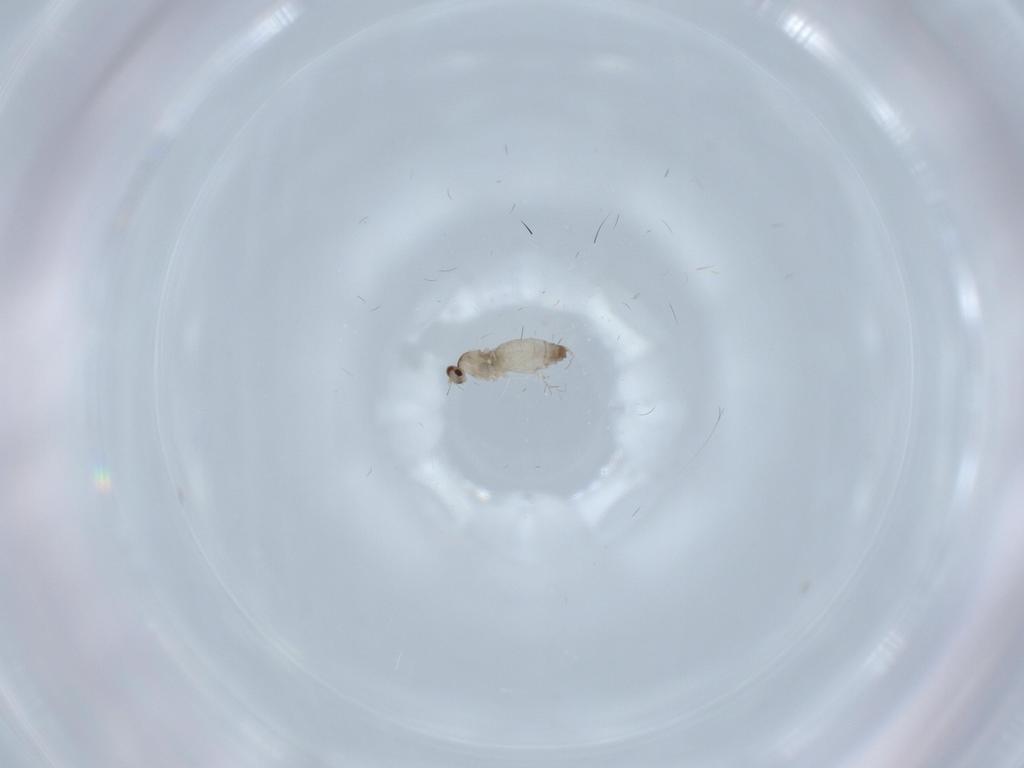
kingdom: Animalia
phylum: Arthropoda
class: Insecta
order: Diptera
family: Cecidomyiidae
